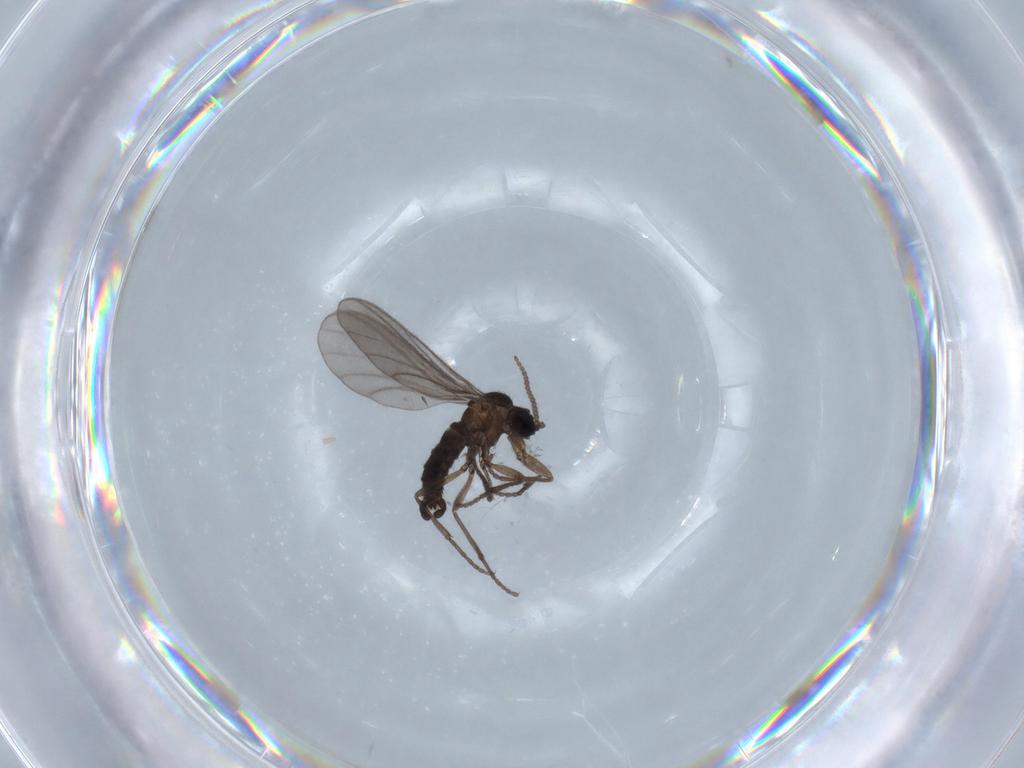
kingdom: Animalia
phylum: Arthropoda
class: Insecta
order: Diptera
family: Sciaridae
